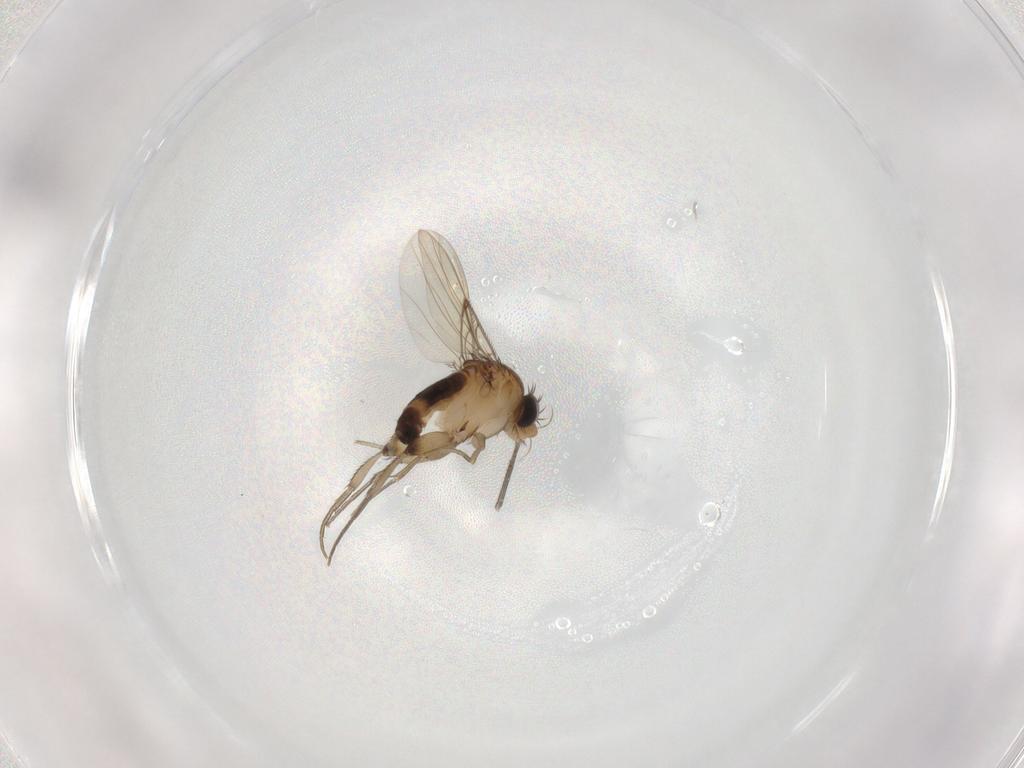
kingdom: Animalia
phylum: Arthropoda
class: Insecta
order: Diptera
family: Phoridae
